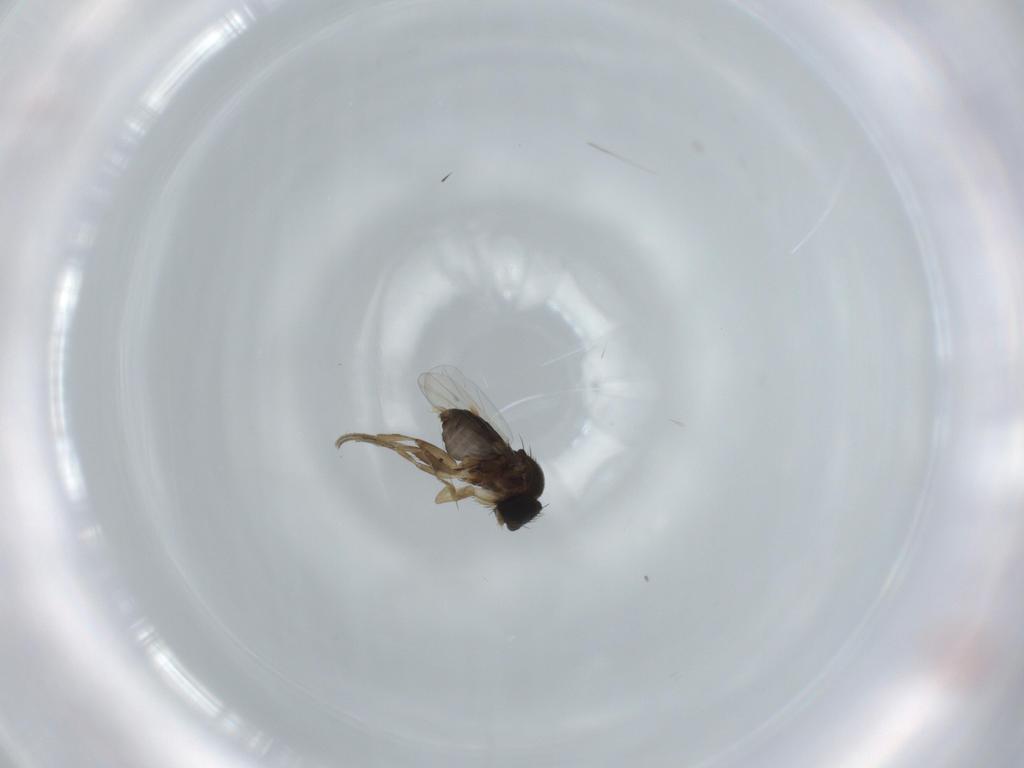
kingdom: Animalia
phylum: Arthropoda
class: Insecta
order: Diptera
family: Phoridae
